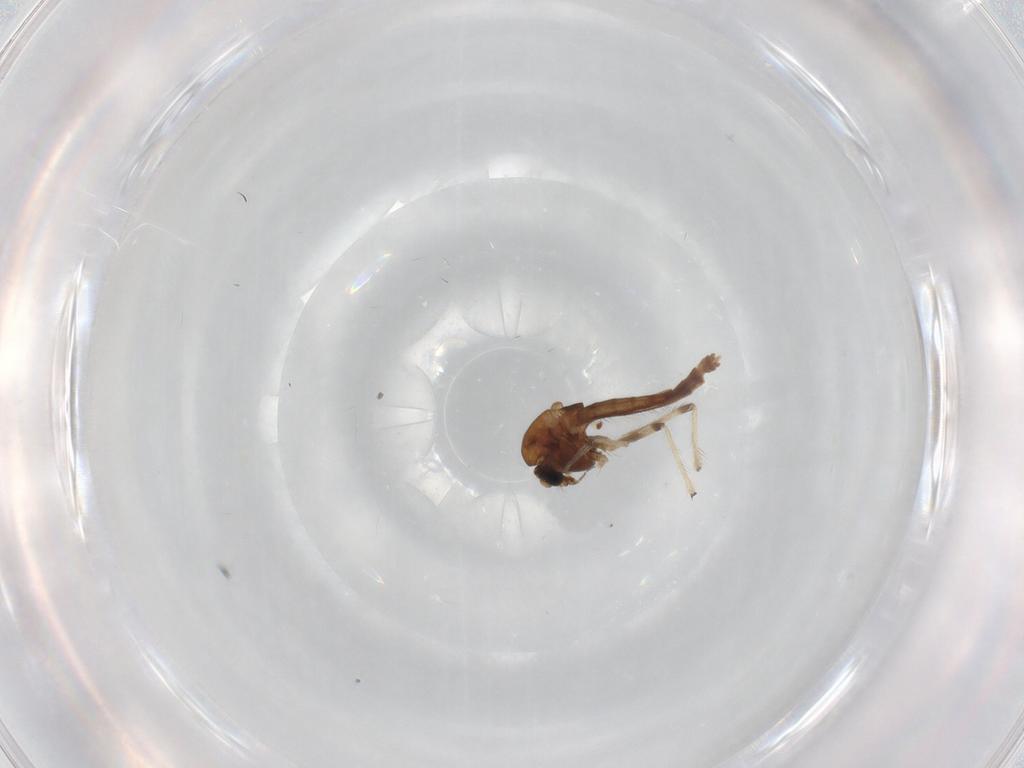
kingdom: Animalia
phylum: Arthropoda
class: Insecta
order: Diptera
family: Chironomidae
